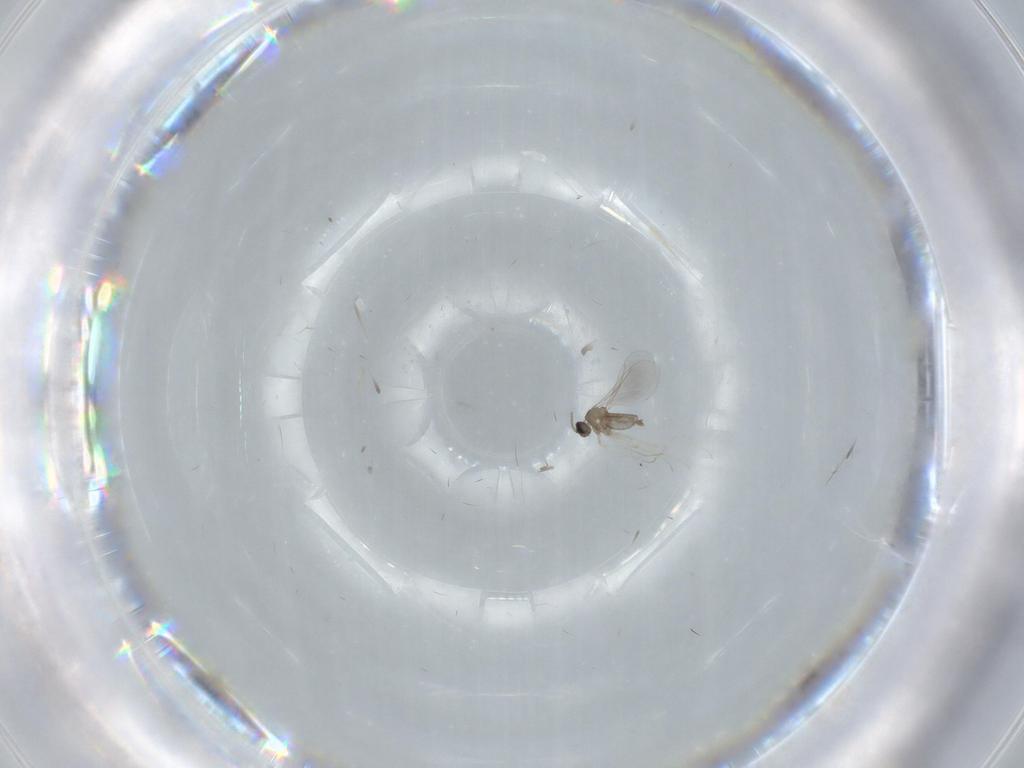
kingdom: Animalia
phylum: Arthropoda
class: Insecta
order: Diptera
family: Cecidomyiidae
